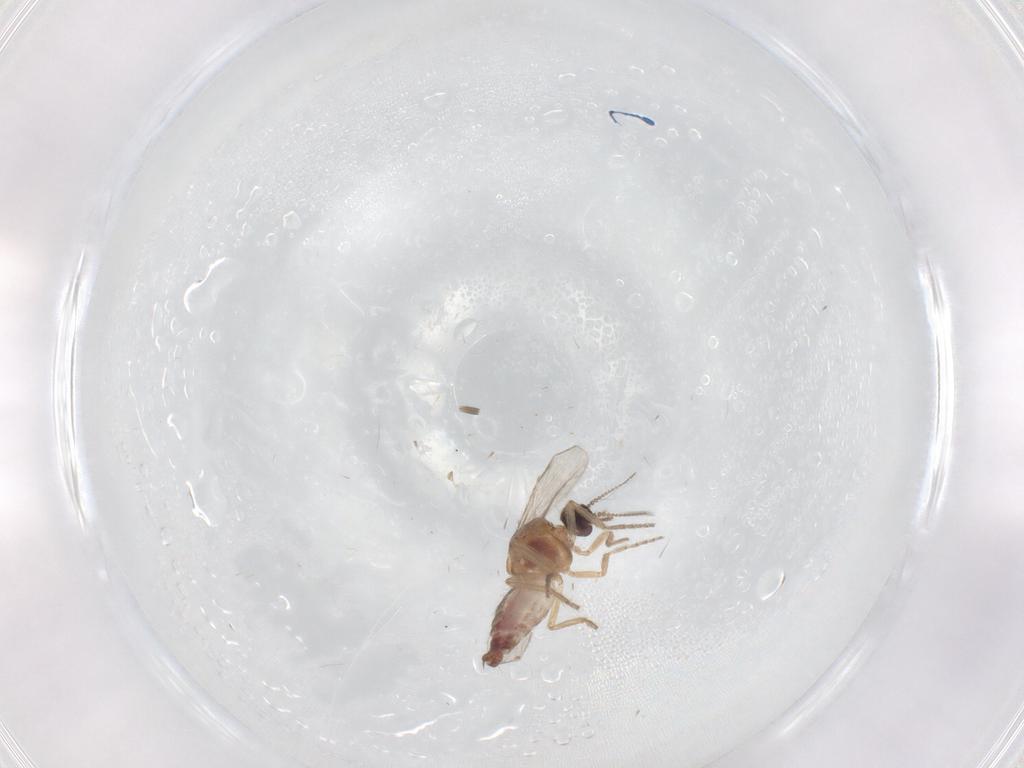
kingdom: Animalia
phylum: Arthropoda
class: Insecta
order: Diptera
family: Ceratopogonidae
